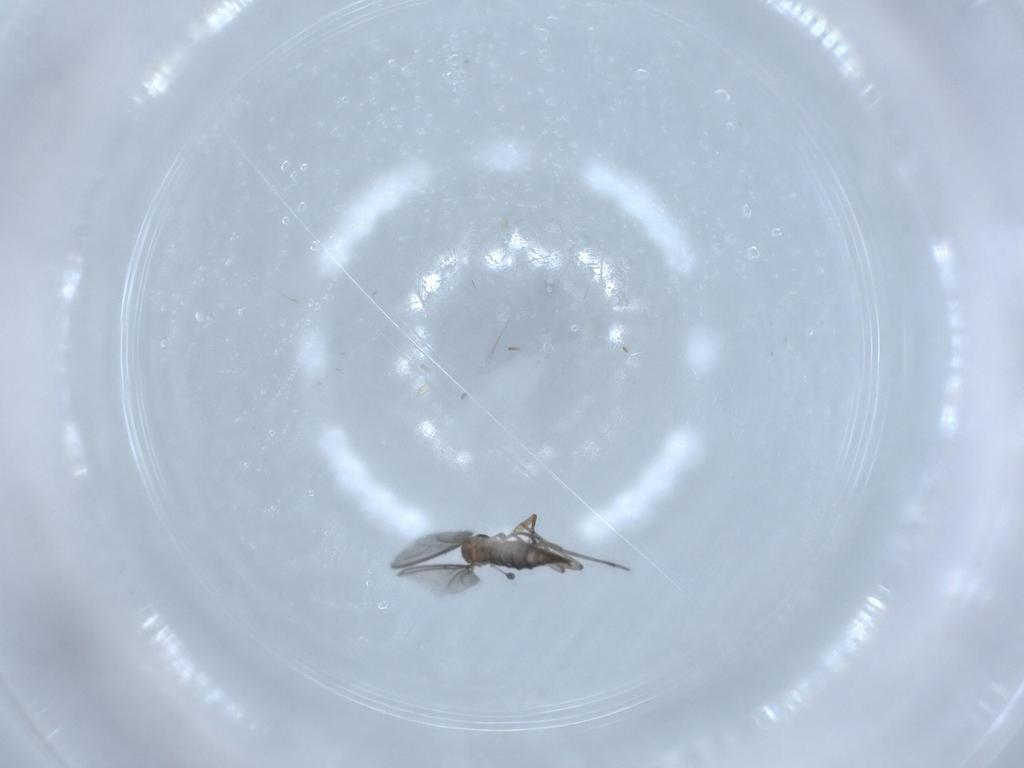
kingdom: Animalia
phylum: Arthropoda
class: Insecta
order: Diptera
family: Sciaridae
